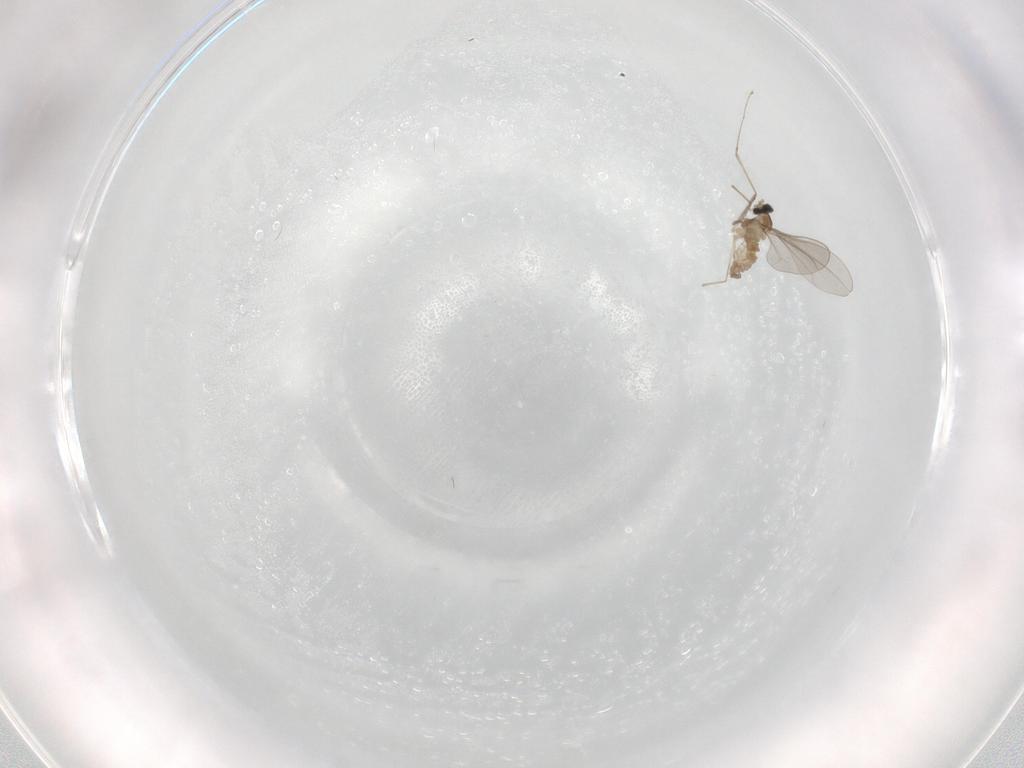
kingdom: Animalia
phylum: Arthropoda
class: Insecta
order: Diptera
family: Cecidomyiidae
